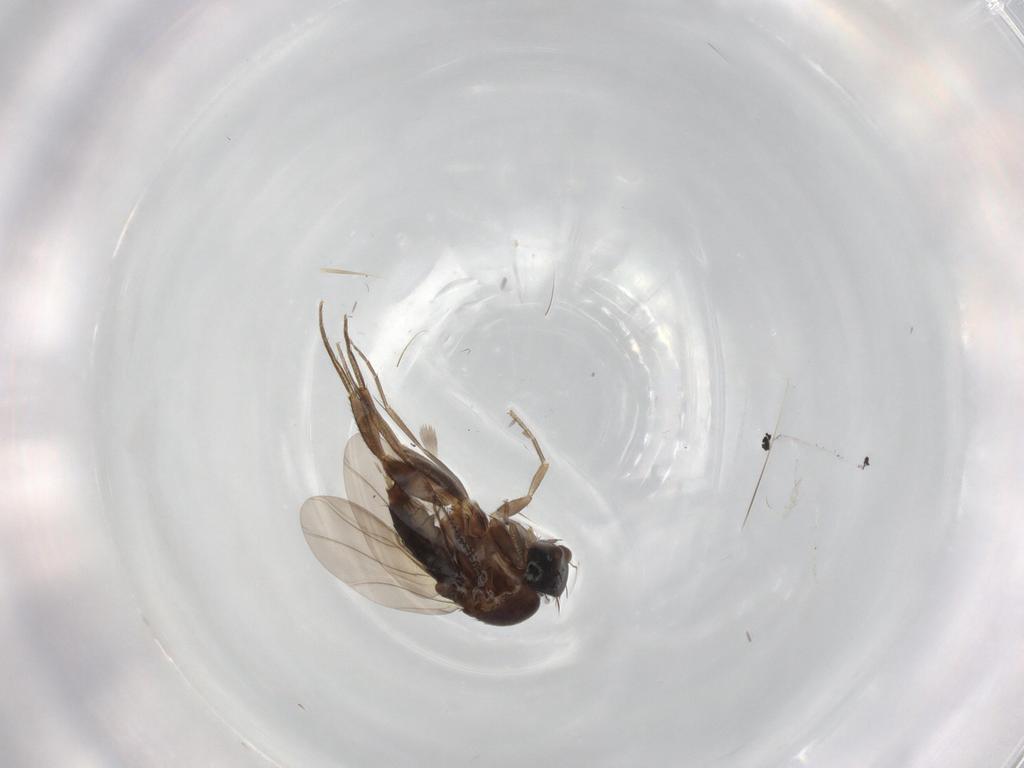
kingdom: Animalia
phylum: Arthropoda
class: Insecta
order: Diptera
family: Phoridae
